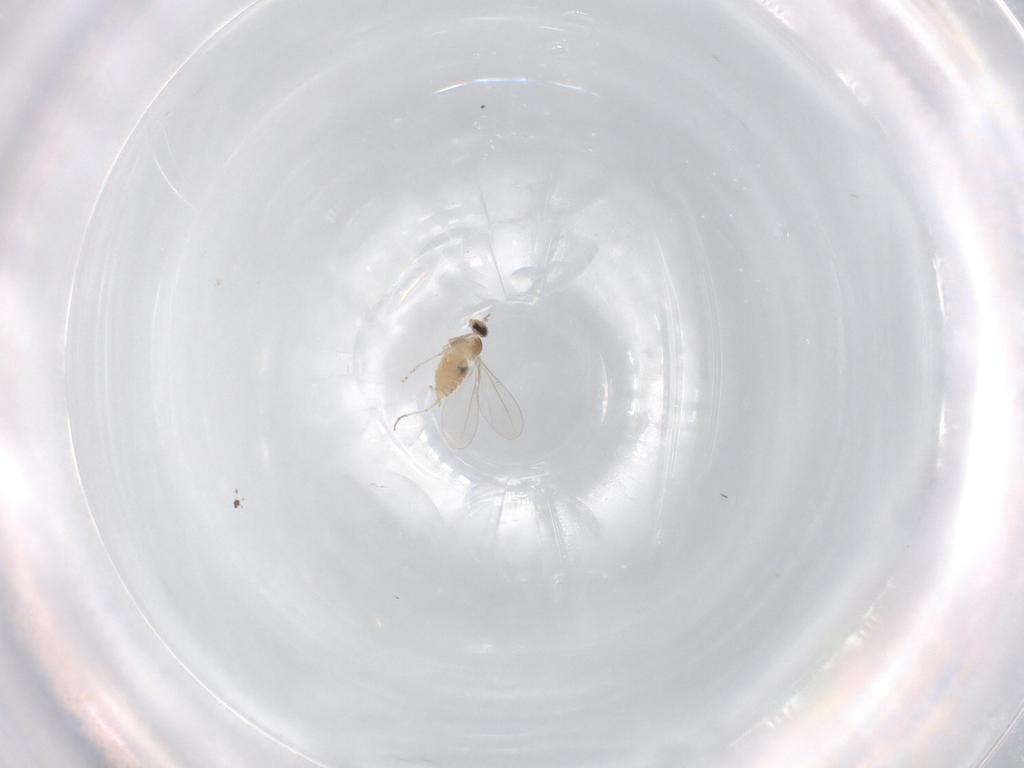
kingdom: Animalia
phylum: Arthropoda
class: Insecta
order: Diptera
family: Cecidomyiidae
